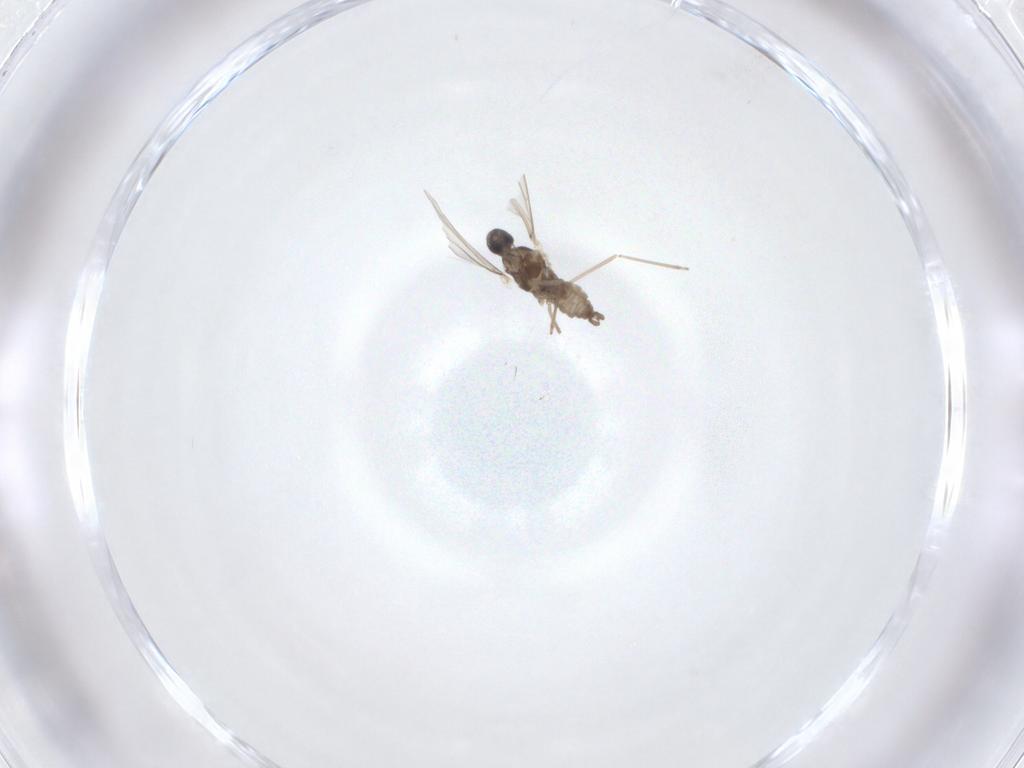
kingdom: Animalia
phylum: Arthropoda
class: Insecta
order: Diptera
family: Cecidomyiidae
